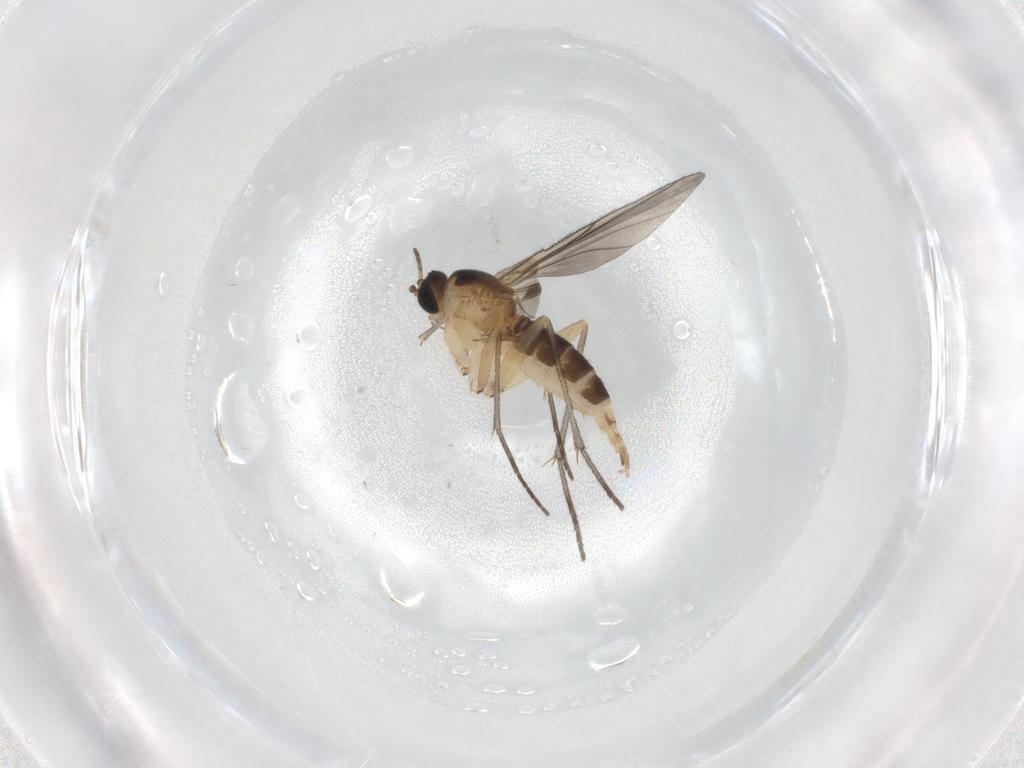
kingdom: Animalia
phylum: Arthropoda
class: Insecta
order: Diptera
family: Sciaridae
